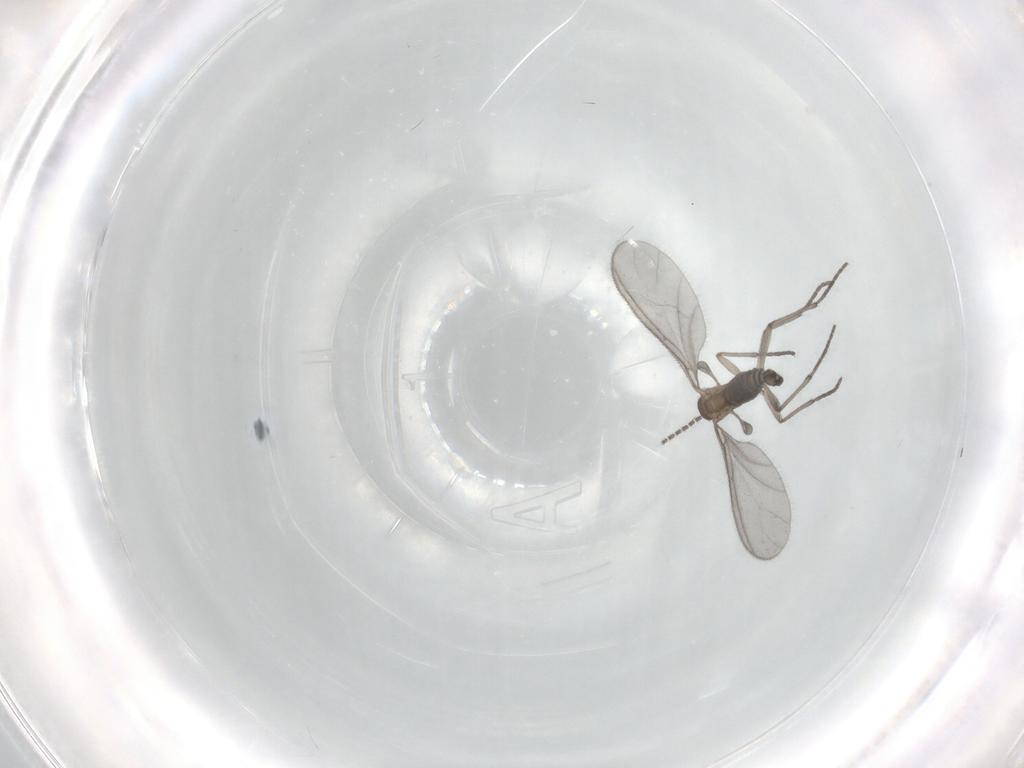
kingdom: Animalia
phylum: Arthropoda
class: Insecta
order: Diptera
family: Sciaridae
